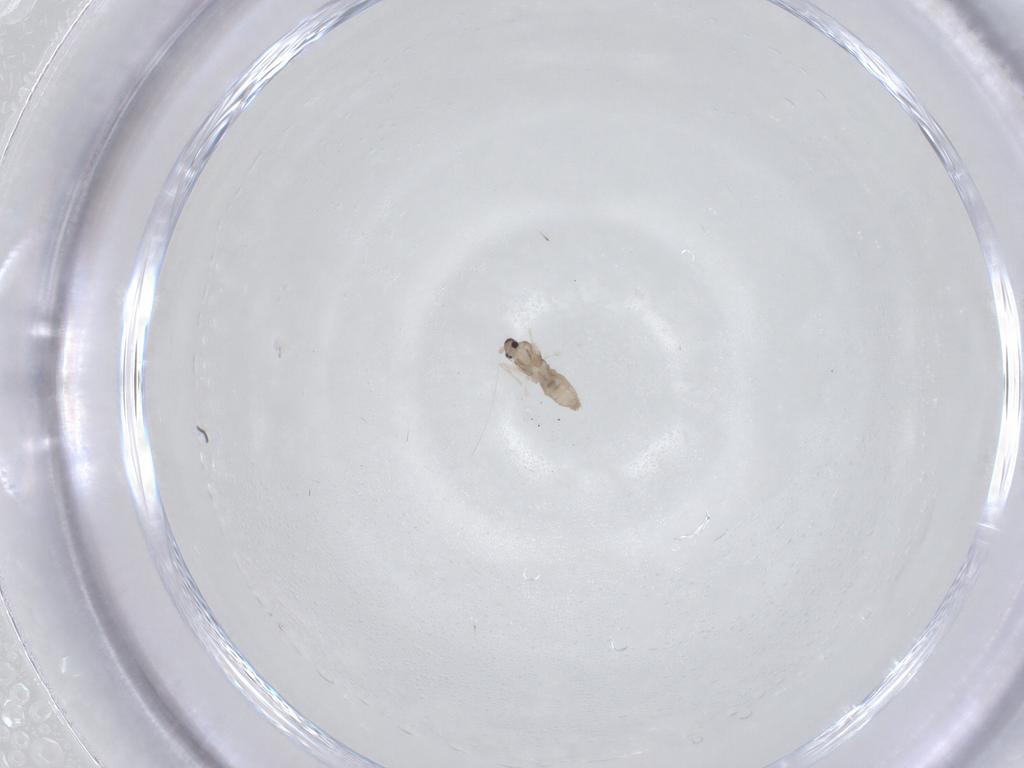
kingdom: Animalia
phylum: Arthropoda
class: Insecta
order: Diptera
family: Cecidomyiidae
